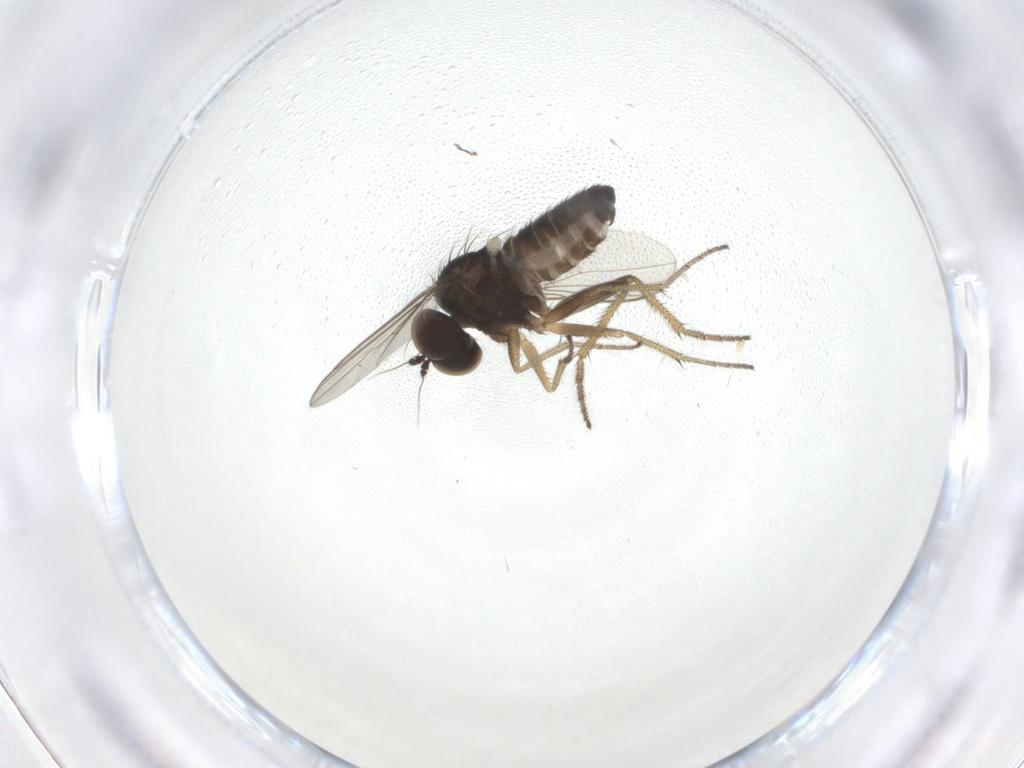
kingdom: Animalia
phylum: Arthropoda
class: Insecta
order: Diptera
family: Dolichopodidae
